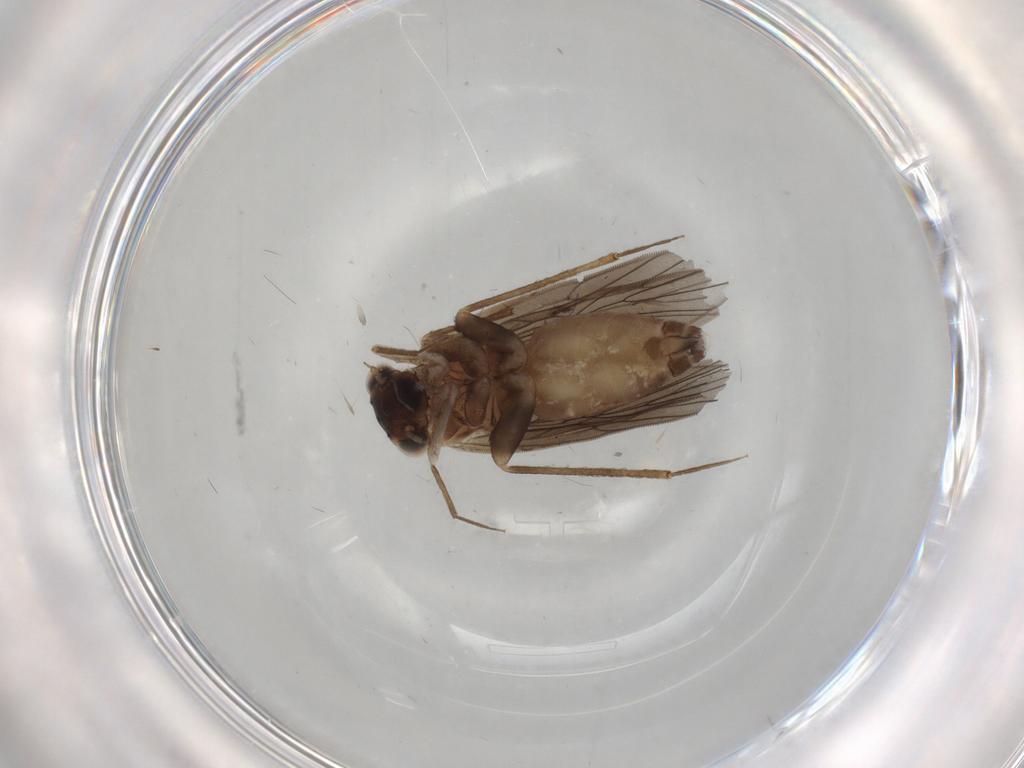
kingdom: Animalia
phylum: Arthropoda
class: Insecta
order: Psocodea
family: Lepidopsocidae
